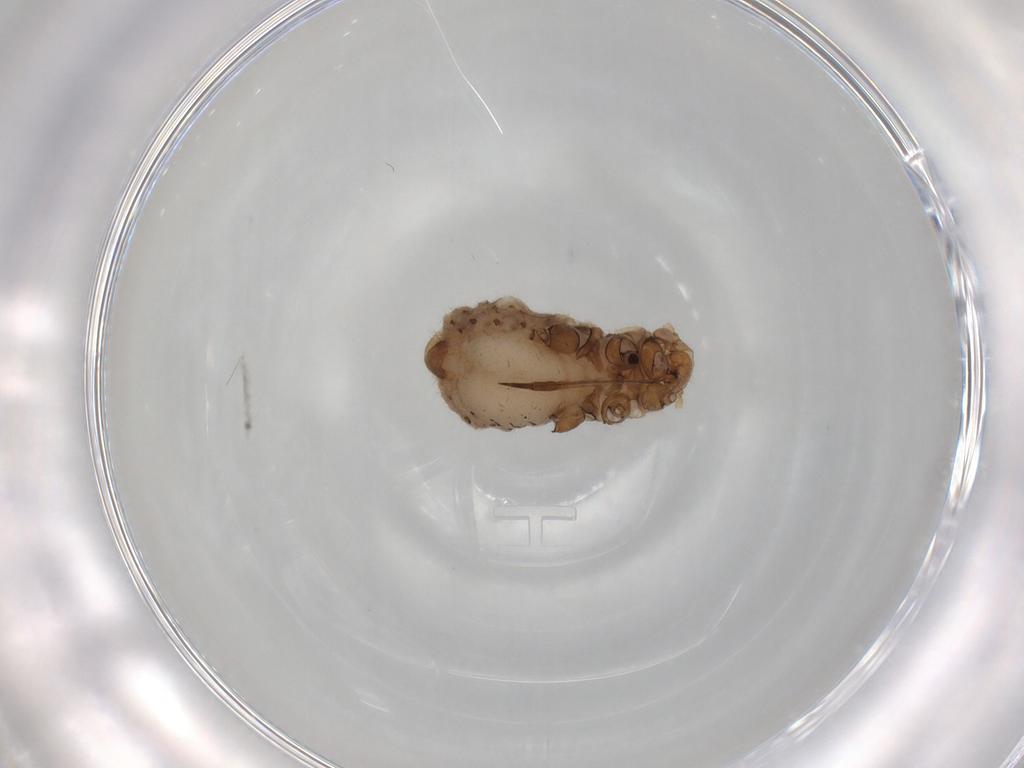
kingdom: Animalia
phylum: Arthropoda
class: Insecta
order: Hemiptera
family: Aphididae
